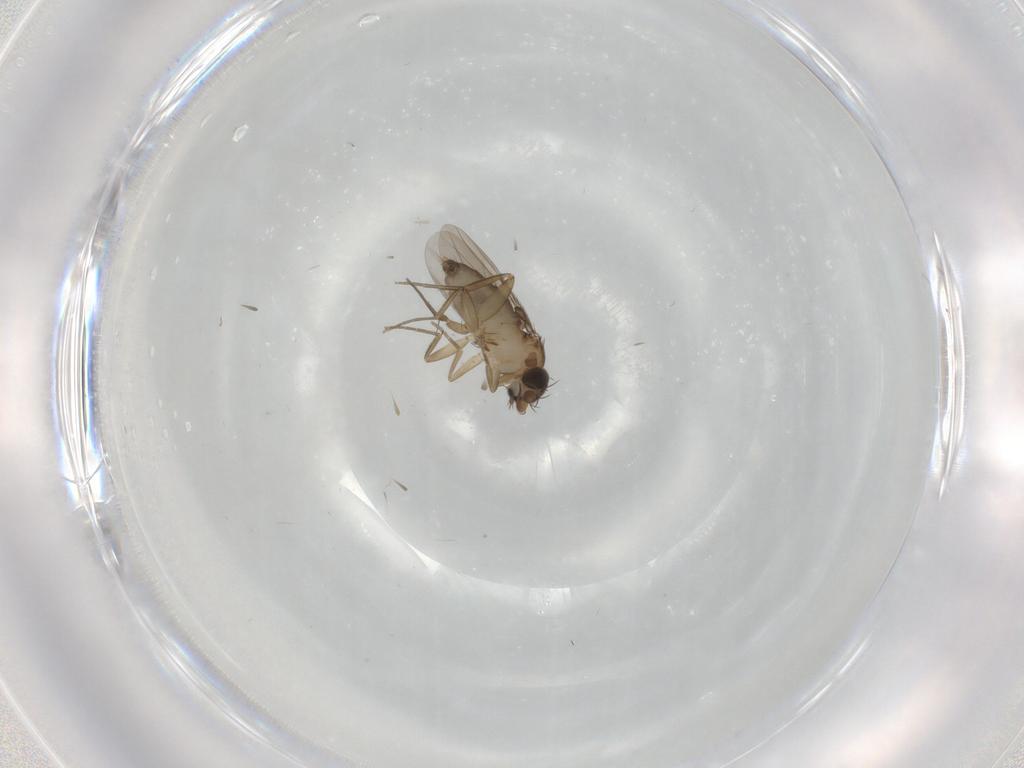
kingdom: Animalia
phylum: Arthropoda
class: Insecta
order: Diptera
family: Phoridae
